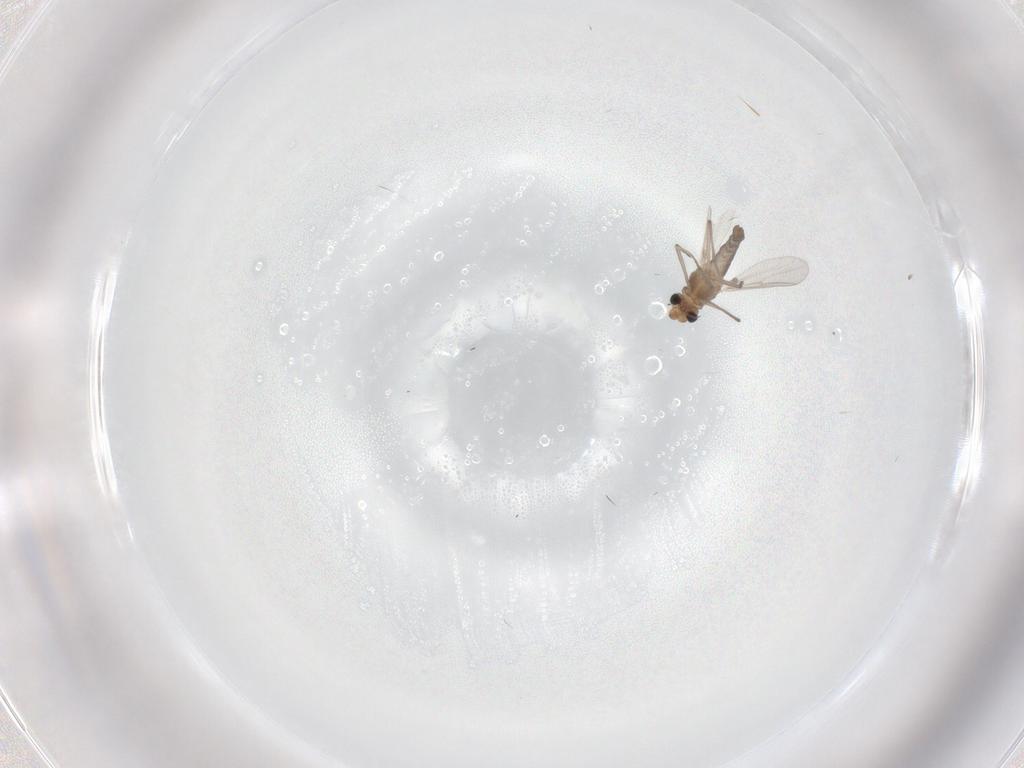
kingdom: Animalia
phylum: Arthropoda
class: Insecta
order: Diptera
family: Chironomidae
